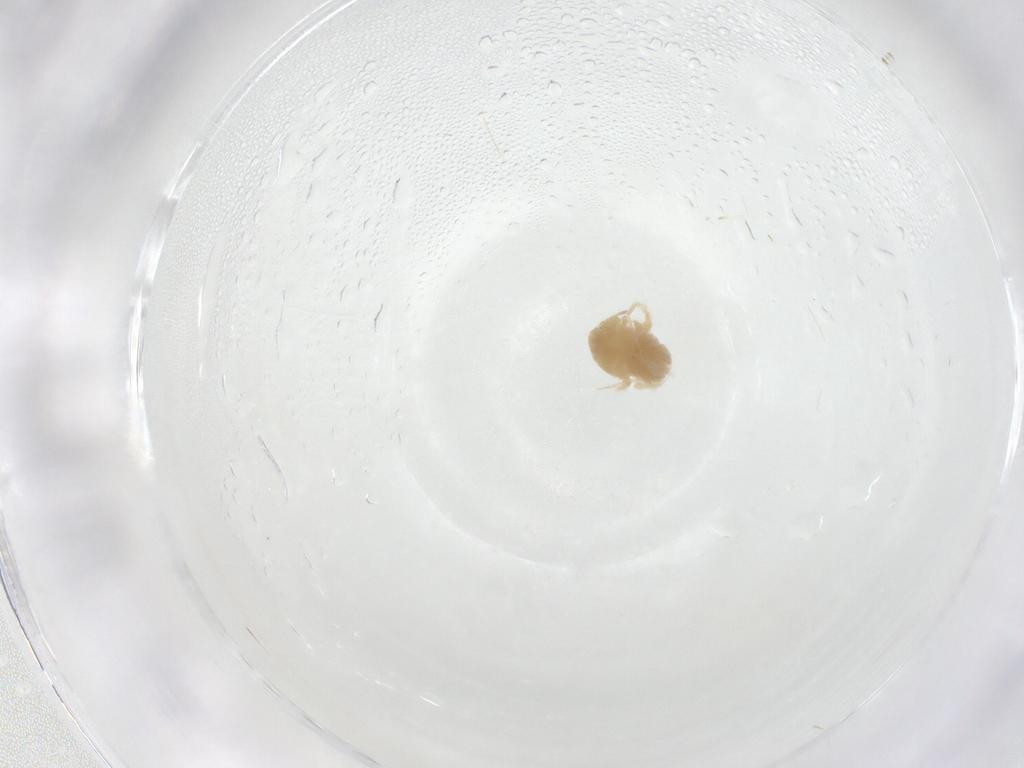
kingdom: Animalia
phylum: Arthropoda
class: Arachnida
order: Trombidiformes
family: Anystidae
